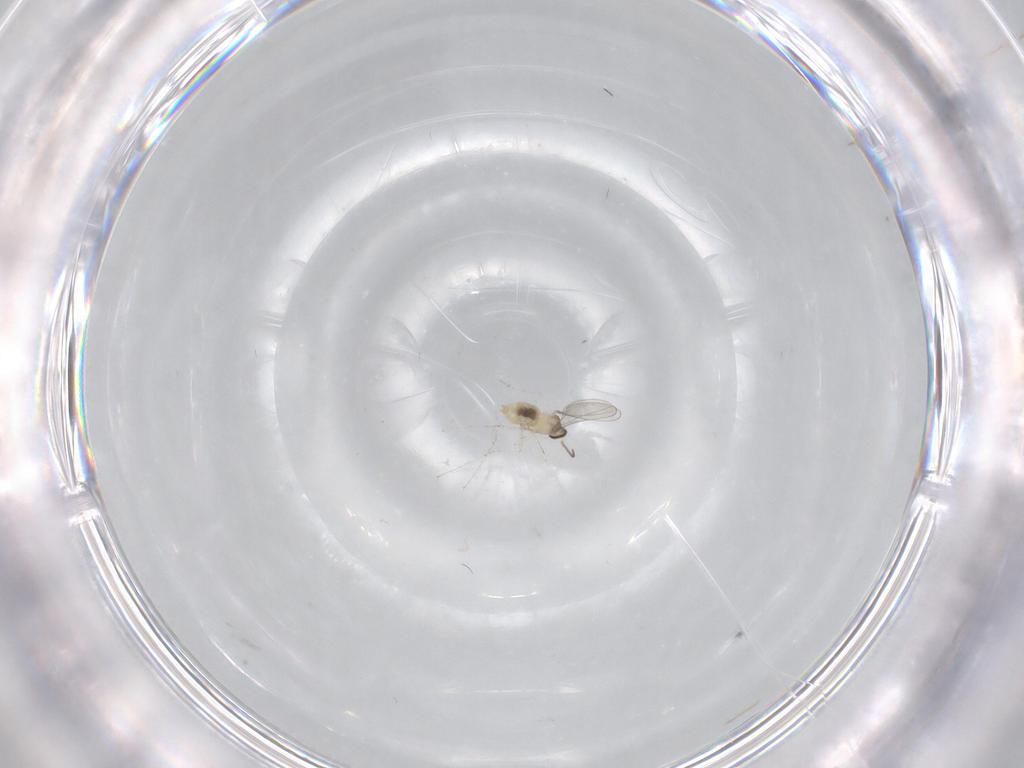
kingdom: Animalia
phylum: Arthropoda
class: Insecta
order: Diptera
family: Cecidomyiidae
